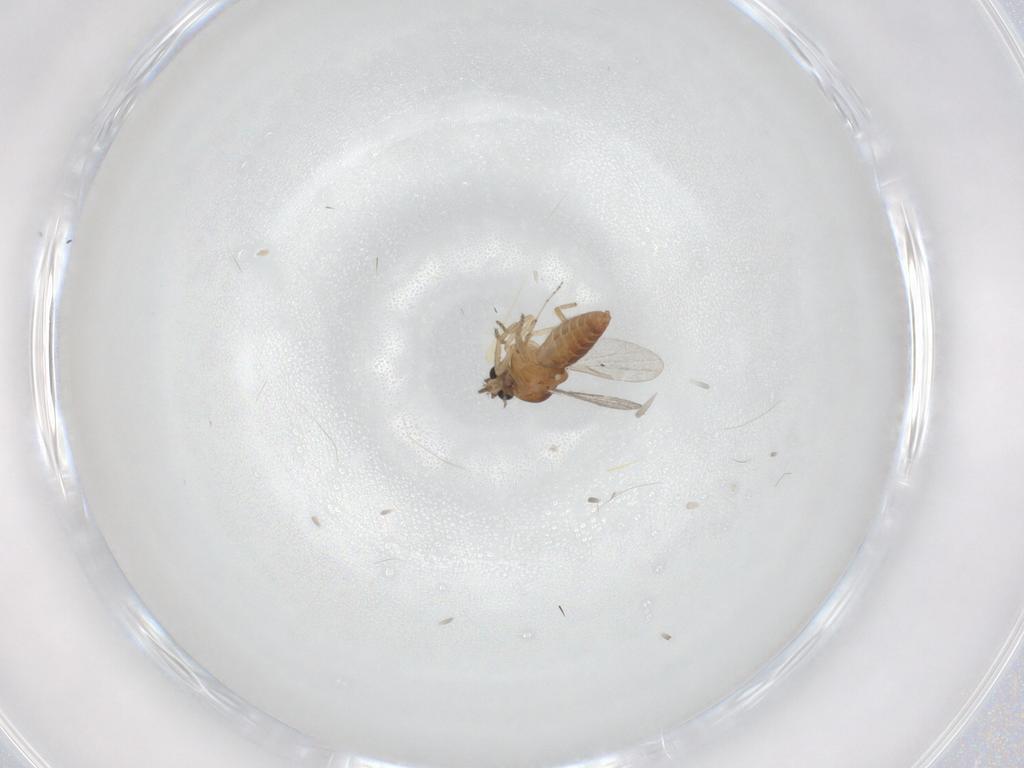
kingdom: Animalia
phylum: Arthropoda
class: Insecta
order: Diptera
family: Ceratopogonidae
